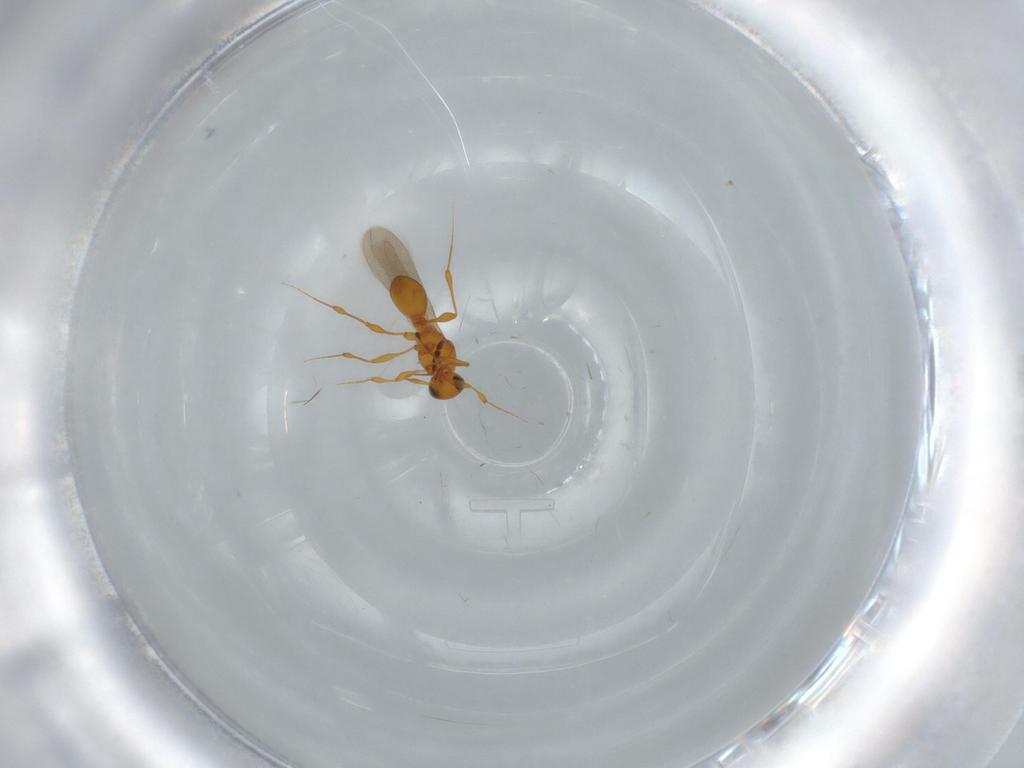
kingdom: Animalia
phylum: Arthropoda
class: Insecta
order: Hymenoptera
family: Platygastridae
